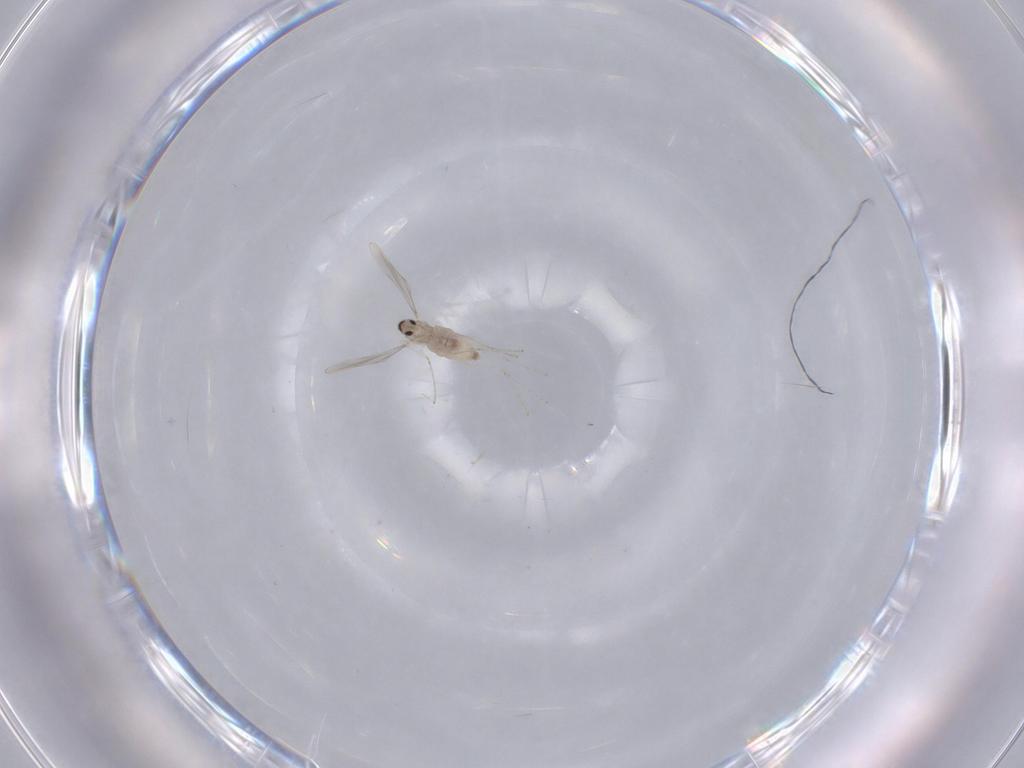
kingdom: Animalia
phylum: Arthropoda
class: Insecta
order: Diptera
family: Cecidomyiidae
